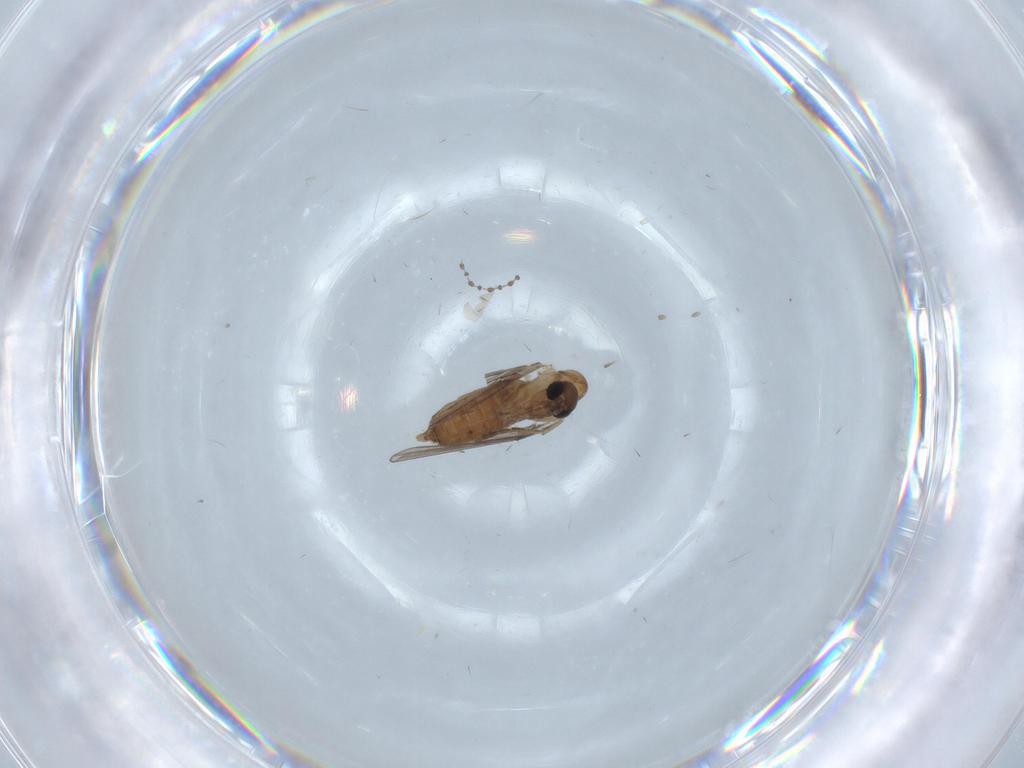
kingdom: Animalia
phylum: Arthropoda
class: Insecta
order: Diptera
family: Cecidomyiidae
